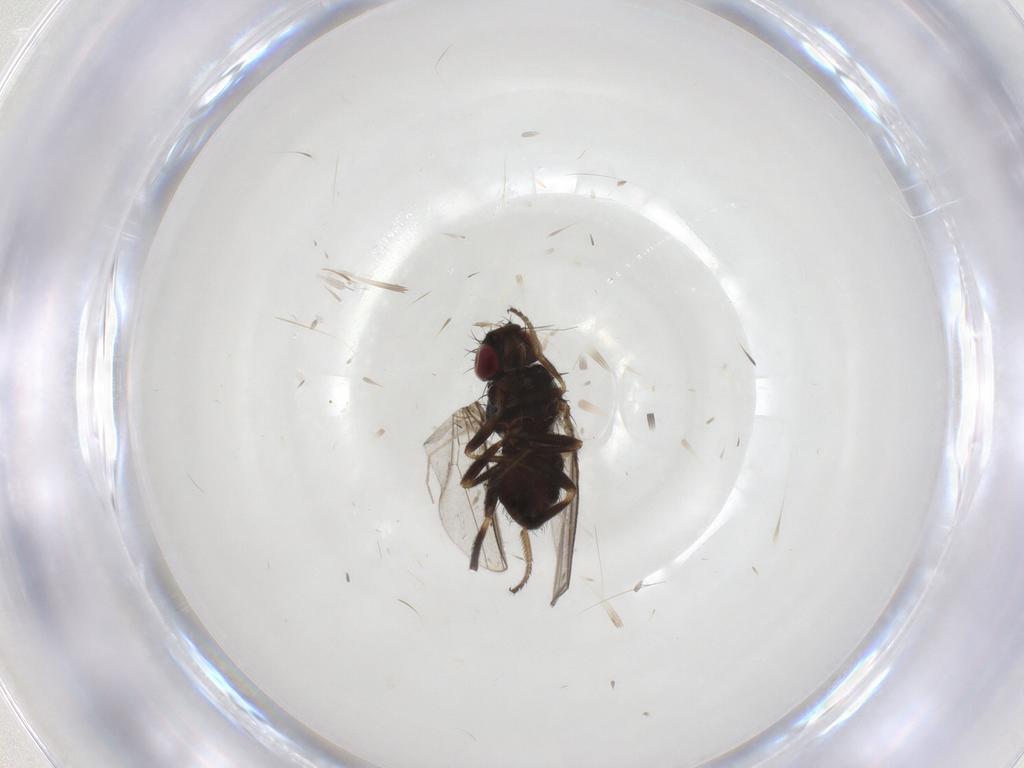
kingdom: Animalia
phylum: Arthropoda
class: Insecta
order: Diptera
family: Milichiidae
